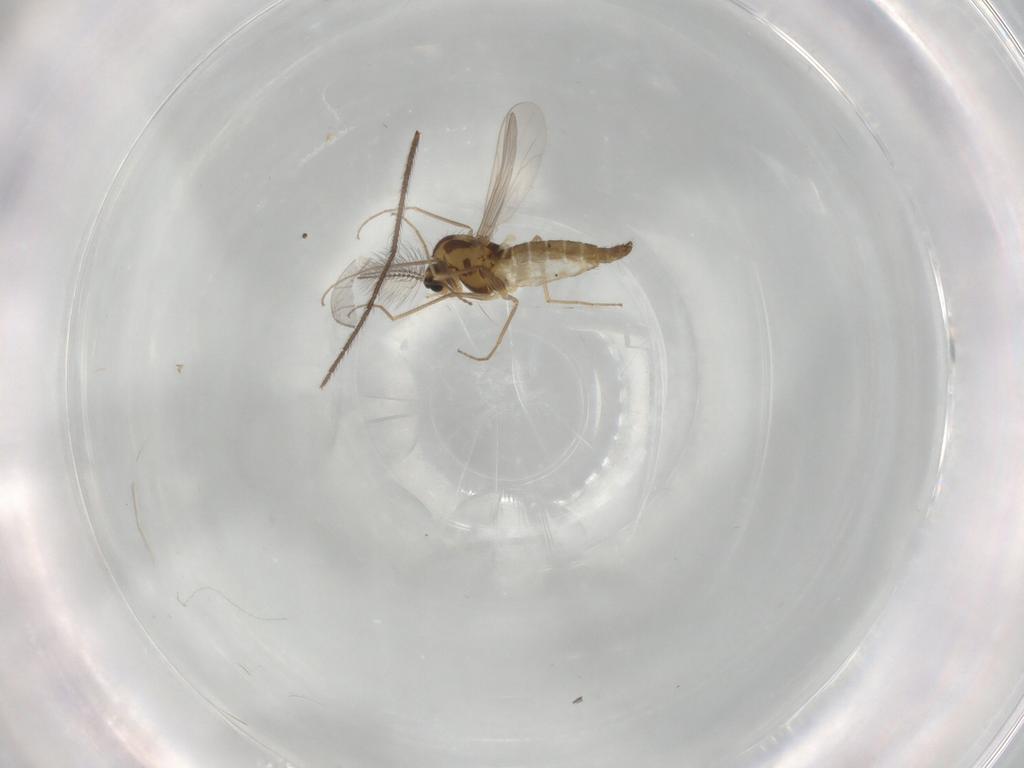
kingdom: Animalia
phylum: Arthropoda
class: Insecta
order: Diptera
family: Chironomidae
